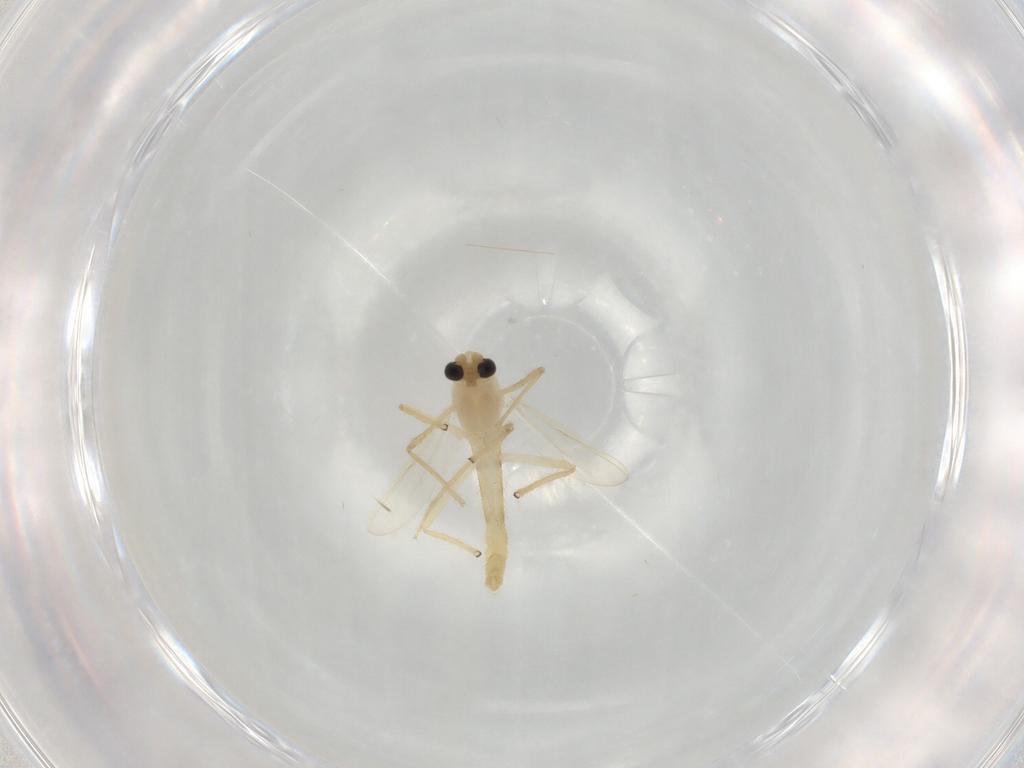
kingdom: Animalia
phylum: Arthropoda
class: Insecta
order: Diptera
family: Chironomidae
